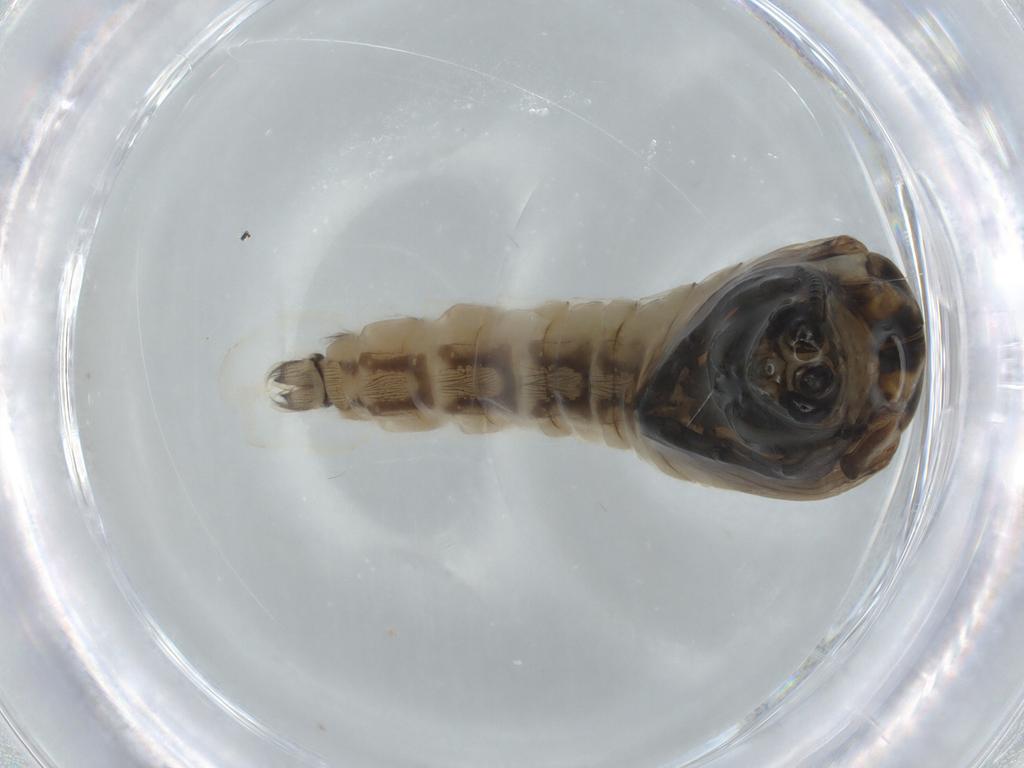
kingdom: Animalia
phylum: Arthropoda
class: Insecta
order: Diptera
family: Chironomidae
